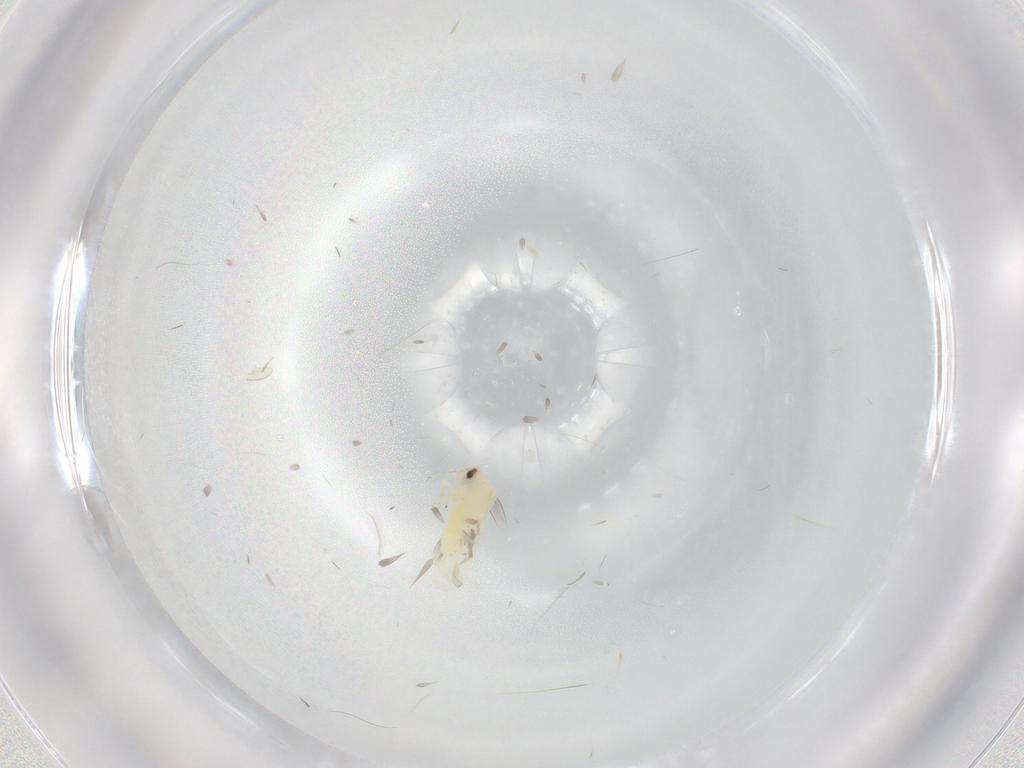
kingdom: Animalia
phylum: Arthropoda
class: Insecta
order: Hemiptera
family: Aleyrodidae
